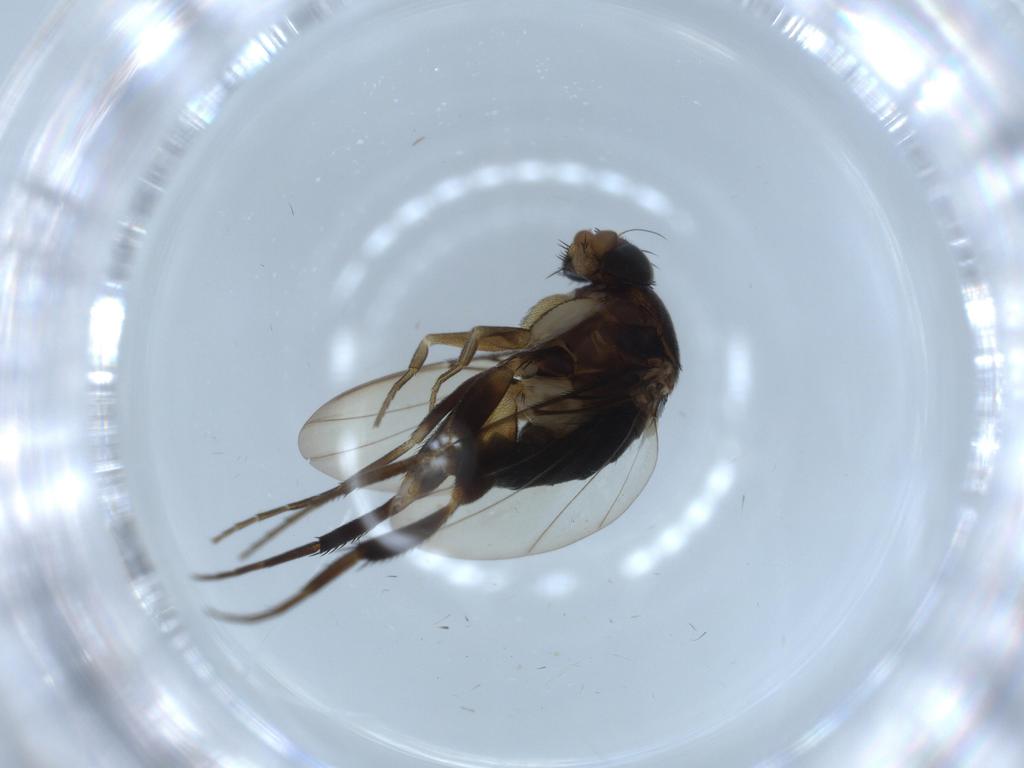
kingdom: Animalia
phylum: Arthropoda
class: Insecta
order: Diptera
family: Phoridae
